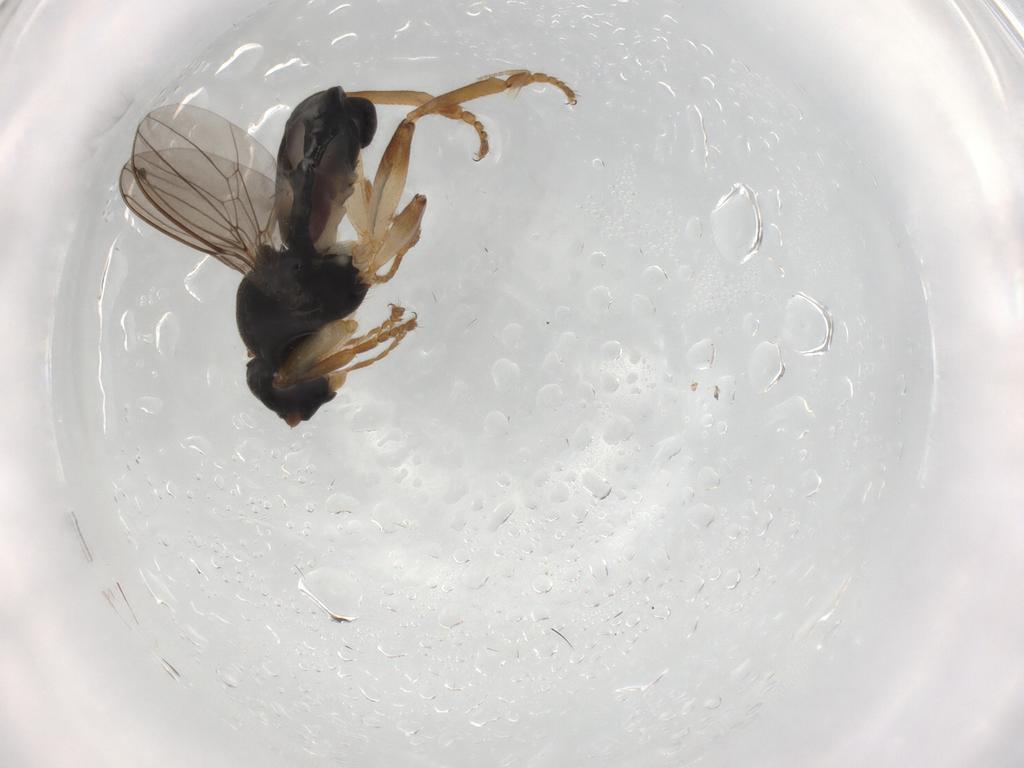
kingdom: Animalia
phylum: Arthropoda
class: Insecta
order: Diptera
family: Sphaeroceridae
